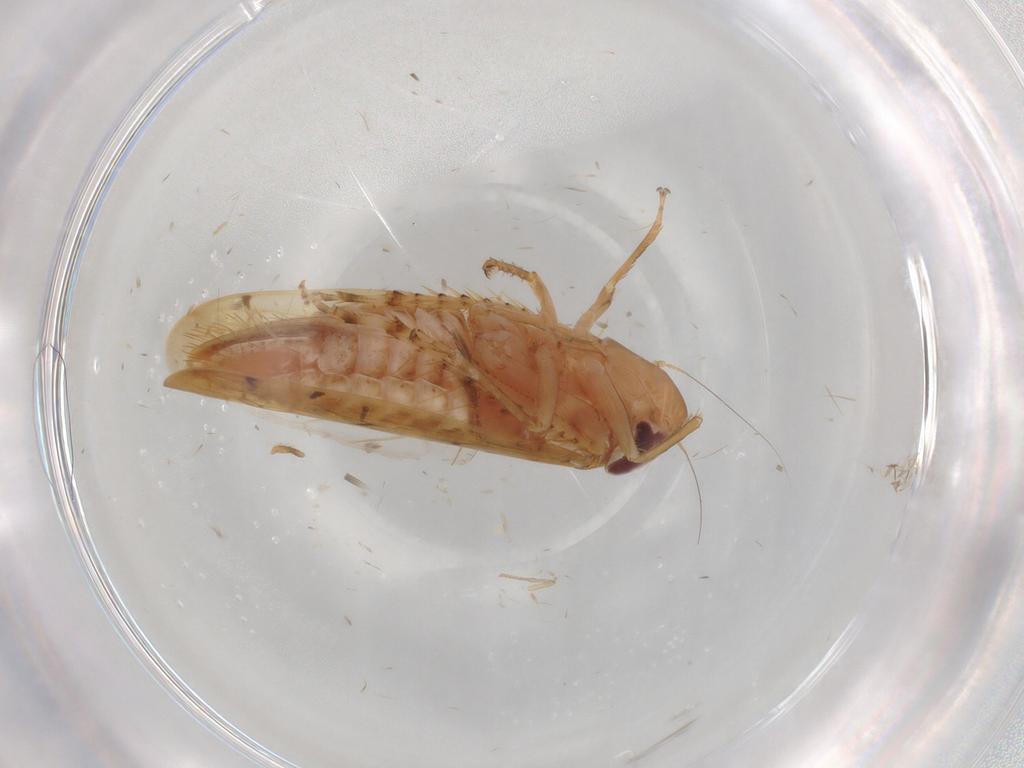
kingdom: Animalia
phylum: Arthropoda
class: Insecta
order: Hemiptera
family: Cicadellidae
